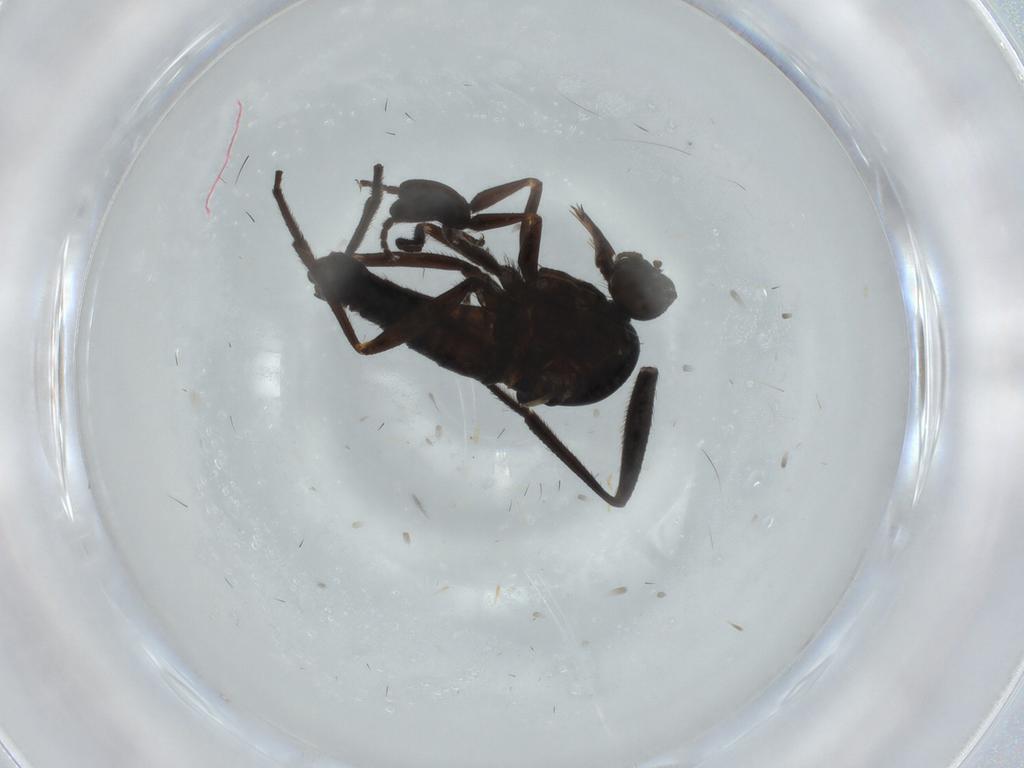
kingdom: Animalia
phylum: Arthropoda
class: Insecta
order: Diptera
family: Empididae
